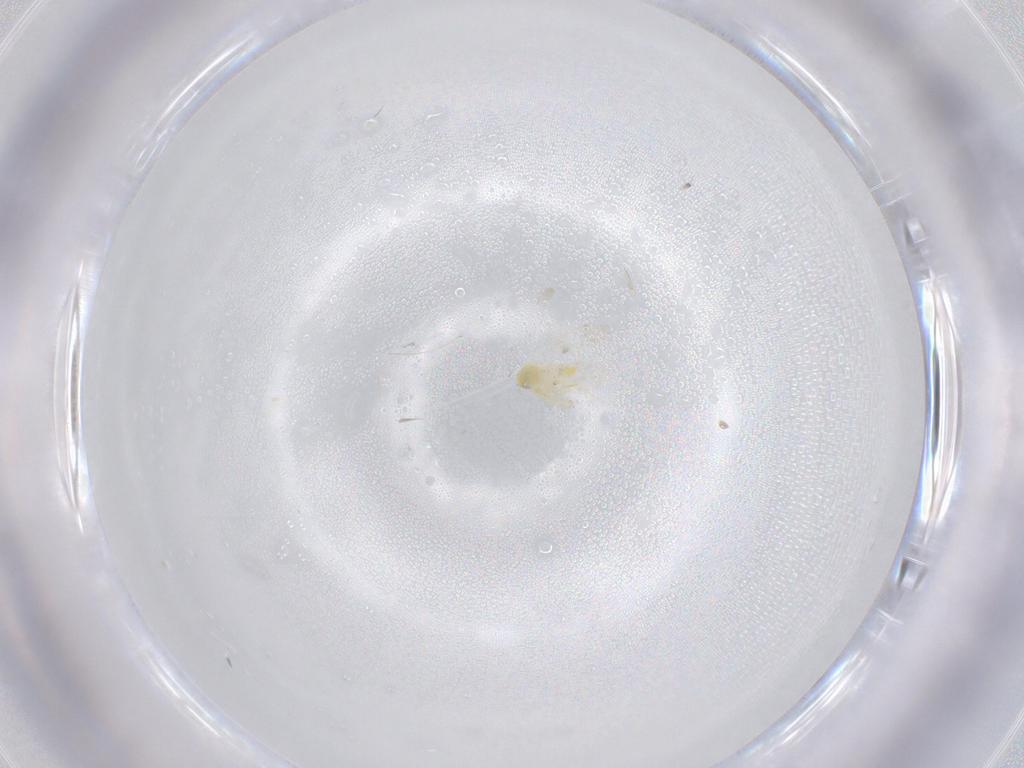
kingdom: Animalia
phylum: Arthropoda
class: Insecta
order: Hemiptera
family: Aleyrodidae
